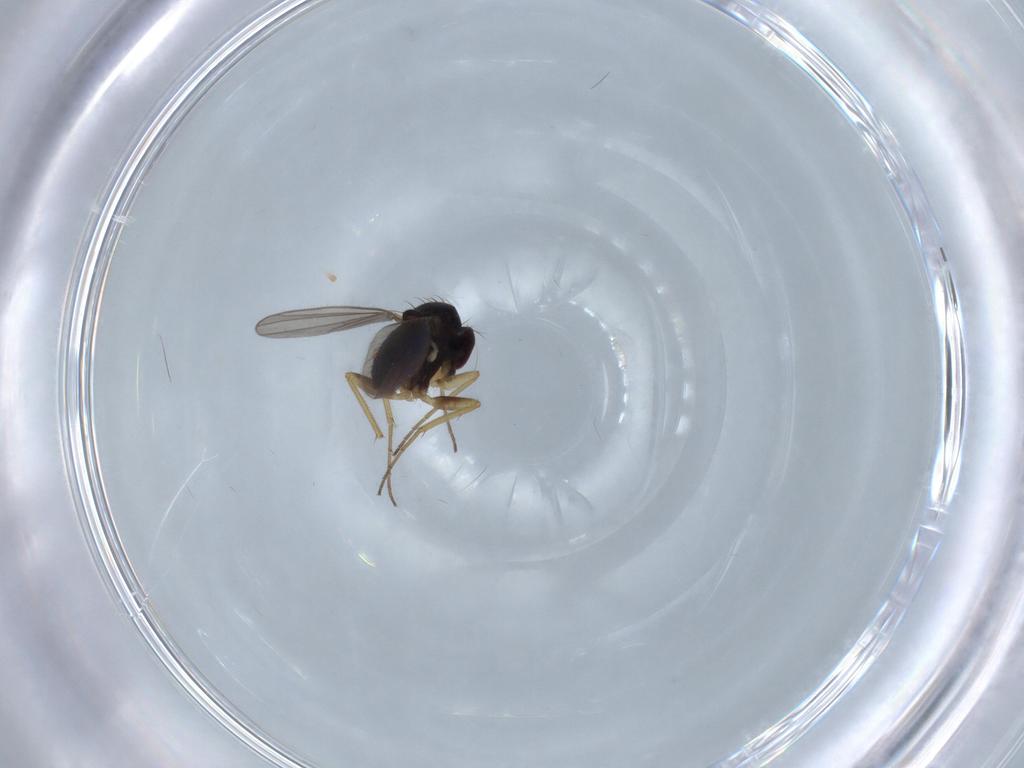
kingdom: Animalia
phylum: Arthropoda
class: Insecta
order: Diptera
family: Dolichopodidae
